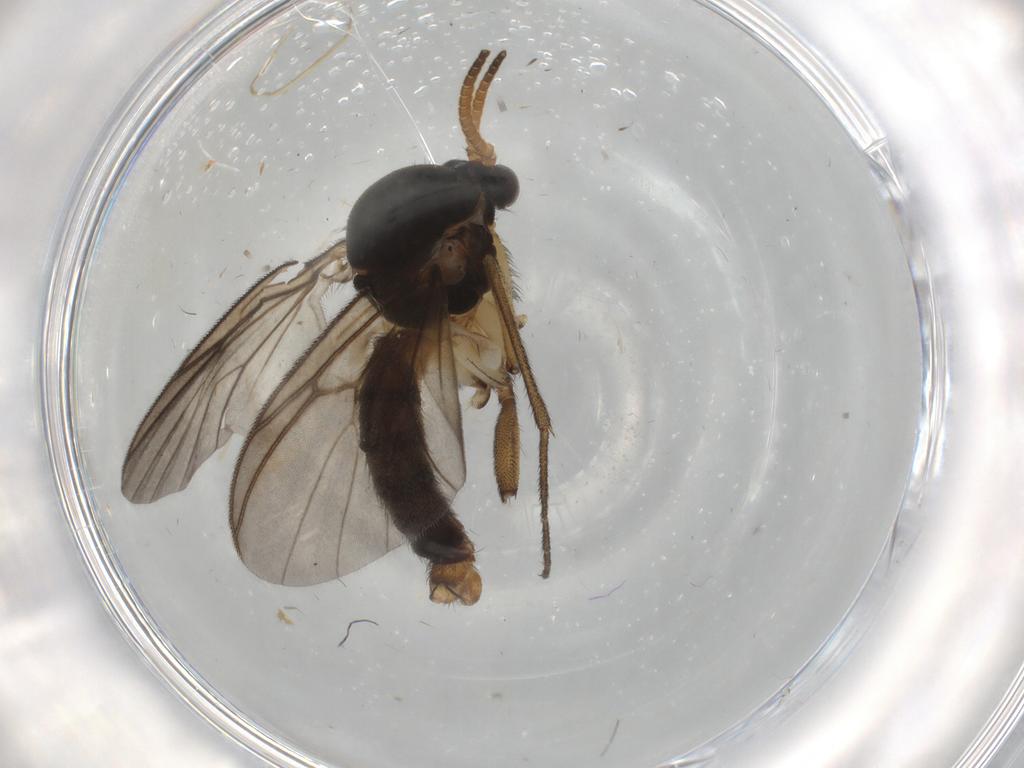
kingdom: Animalia
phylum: Arthropoda
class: Insecta
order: Diptera
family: Mycetophilidae
